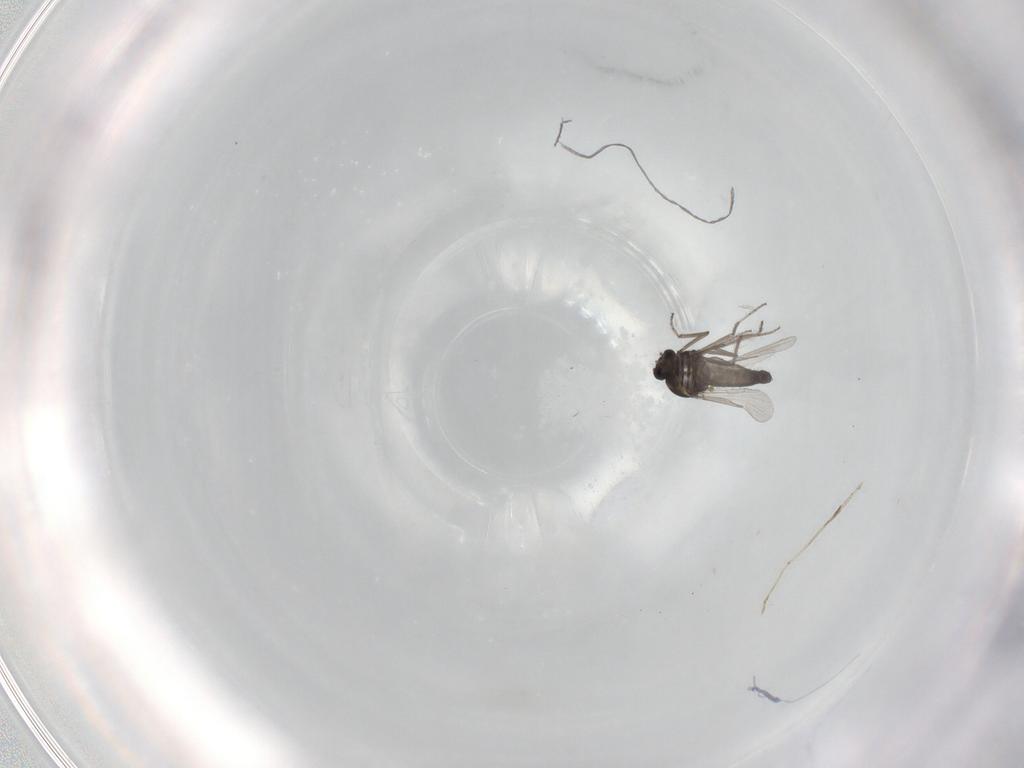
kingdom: Animalia
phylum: Arthropoda
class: Insecta
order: Diptera
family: Ceratopogonidae
